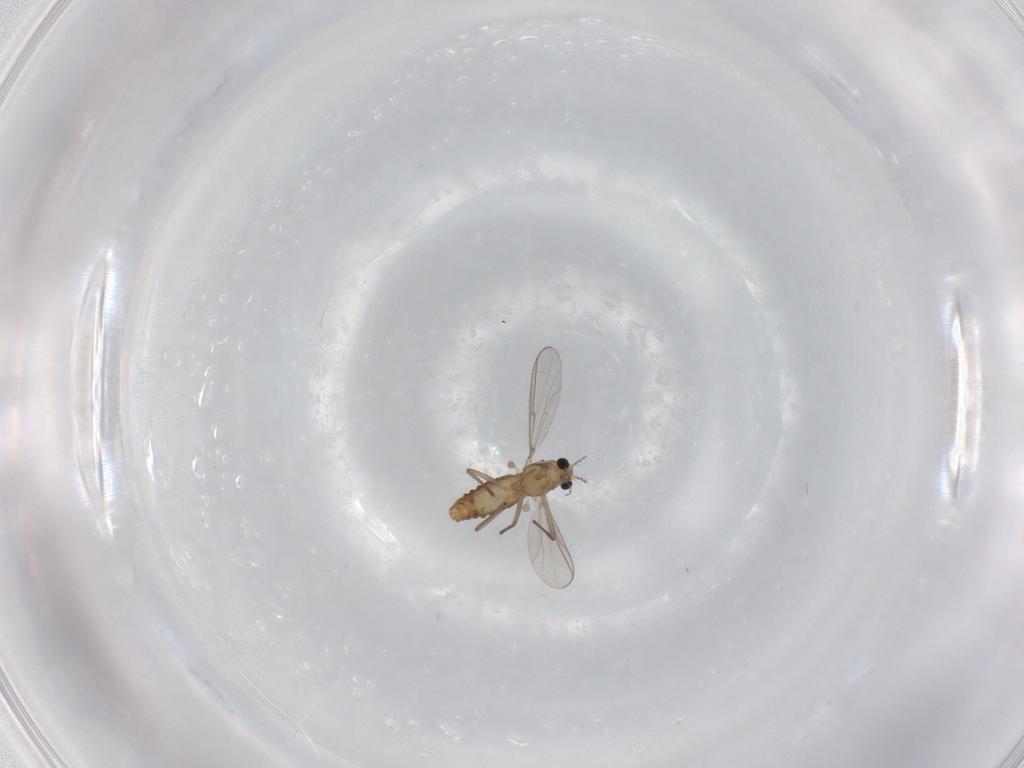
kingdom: Animalia
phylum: Arthropoda
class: Insecta
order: Diptera
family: Chironomidae
